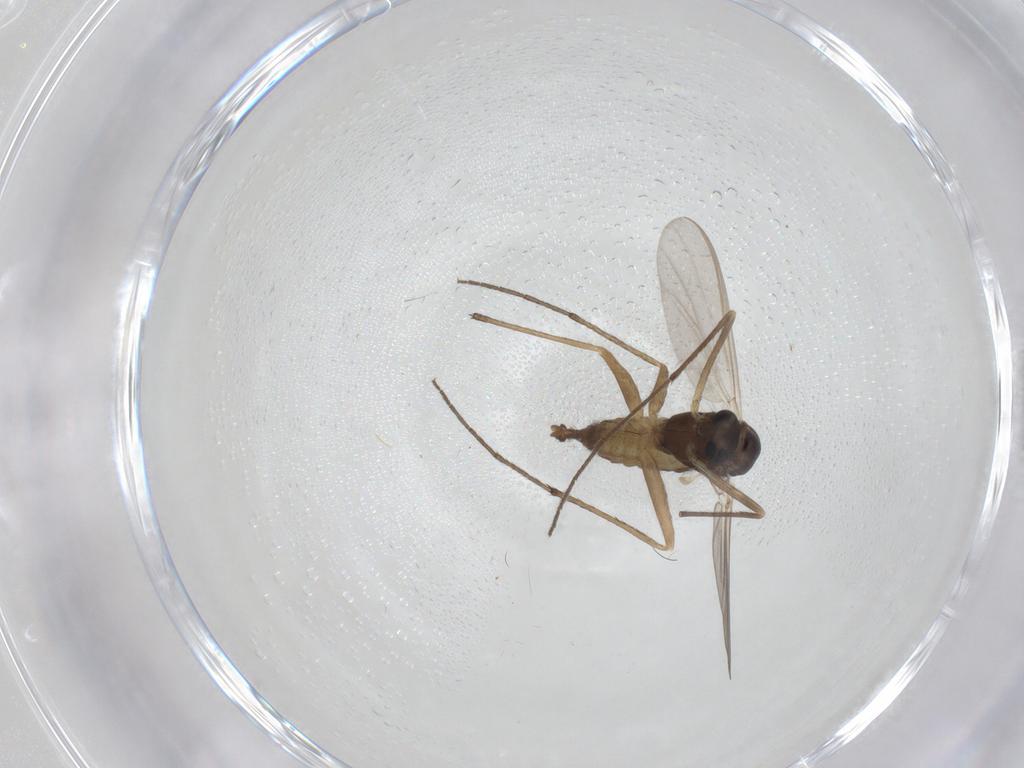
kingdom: Animalia
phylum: Arthropoda
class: Insecta
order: Diptera
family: Chironomidae
